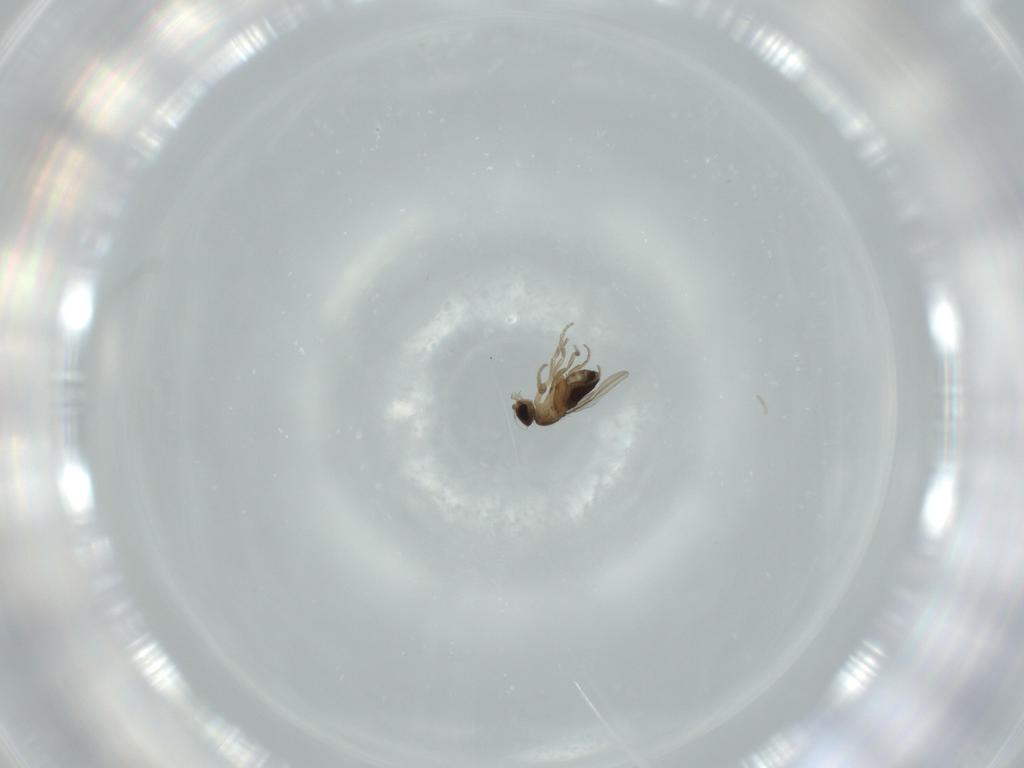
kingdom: Animalia
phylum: Arthropoda
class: Insecta
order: Diptera
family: Phoridae
